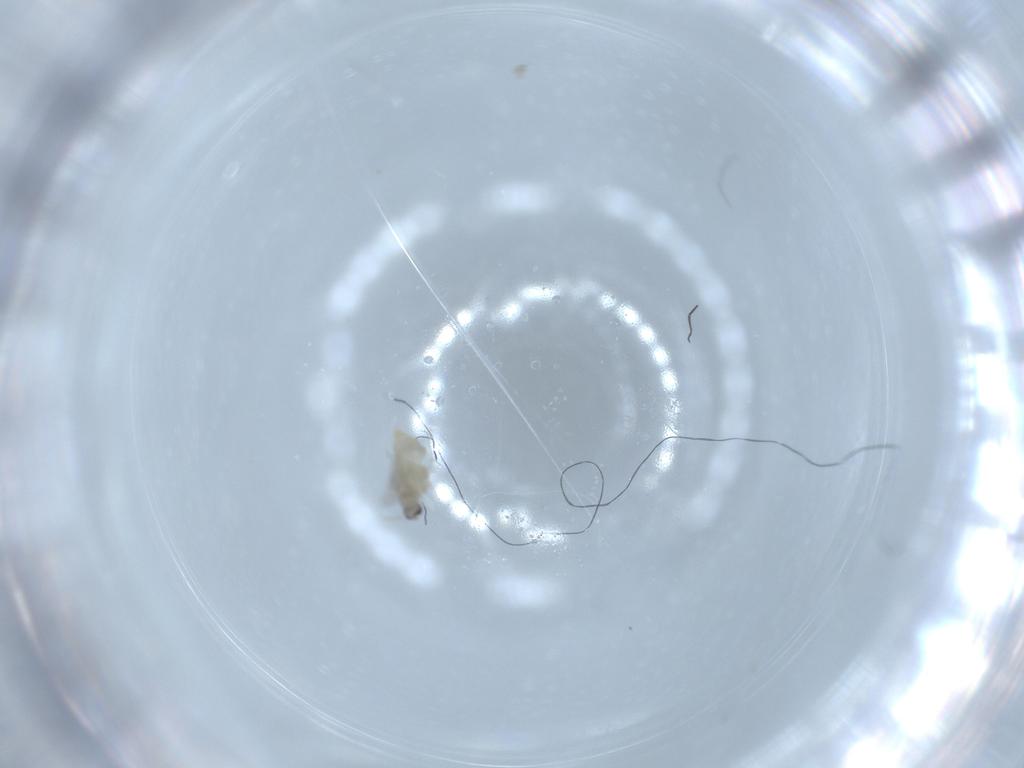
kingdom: Animalia
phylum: Arthropoda
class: Insecta
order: Diptera
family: Cecidomyiidae
